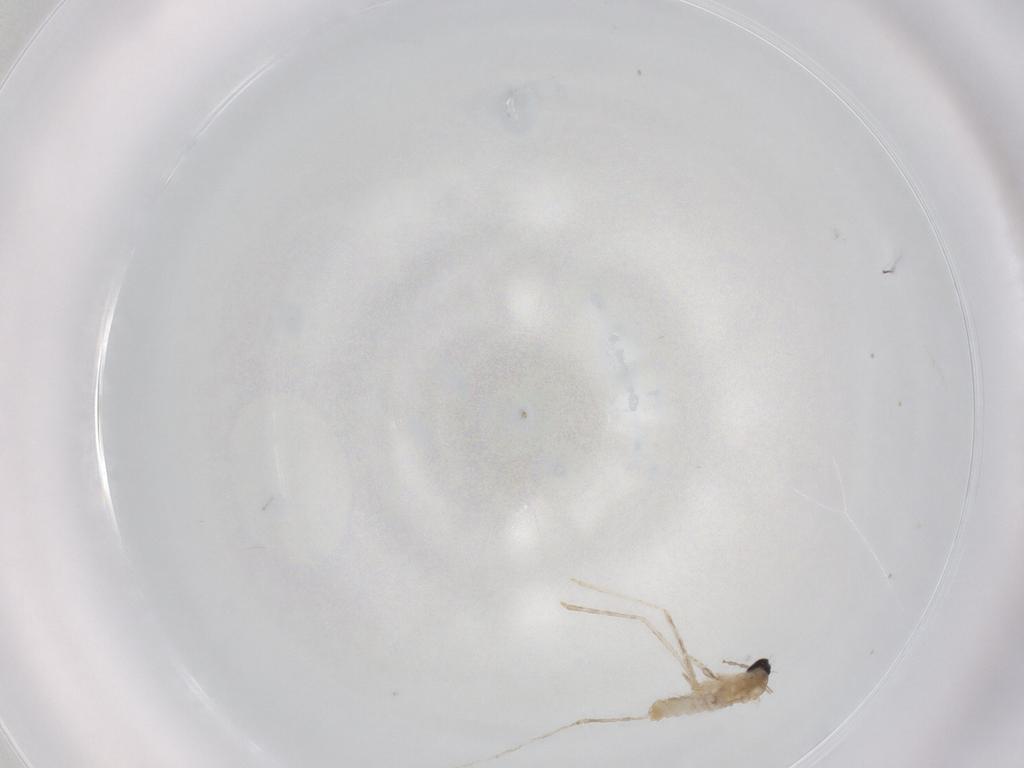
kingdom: Animalia
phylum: Arthropoda
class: Insecta
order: Diptera
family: Cecidomyiidae
